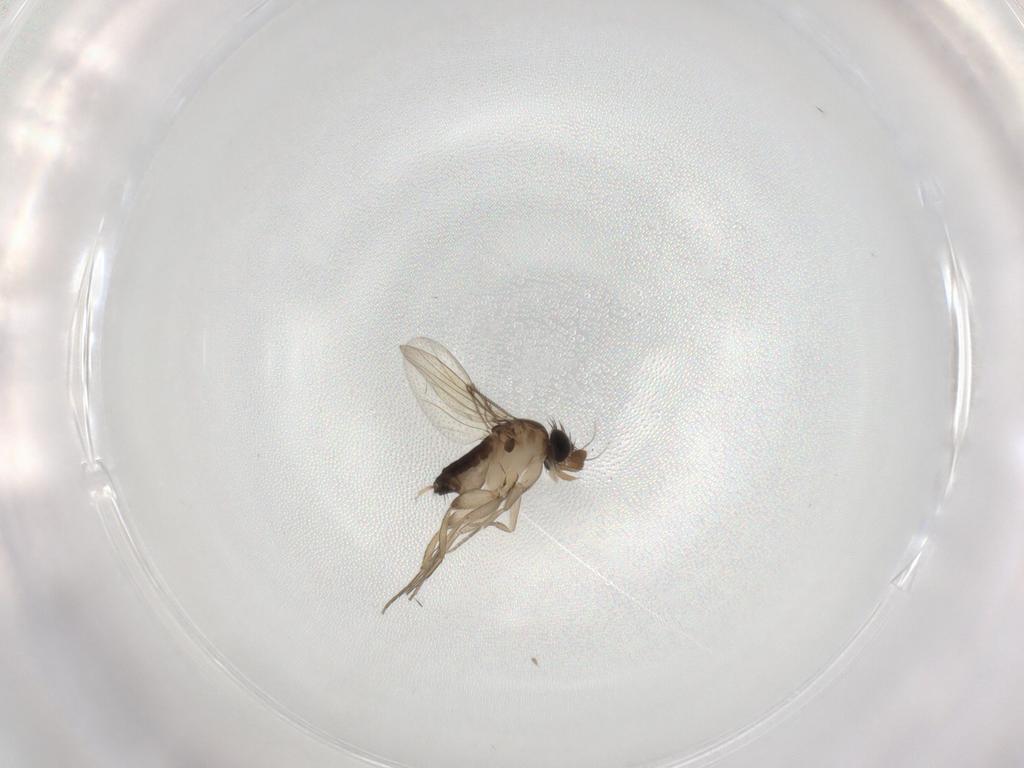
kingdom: Animalia
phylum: Arthropoda
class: Insecta
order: Diptera
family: Phoridae
